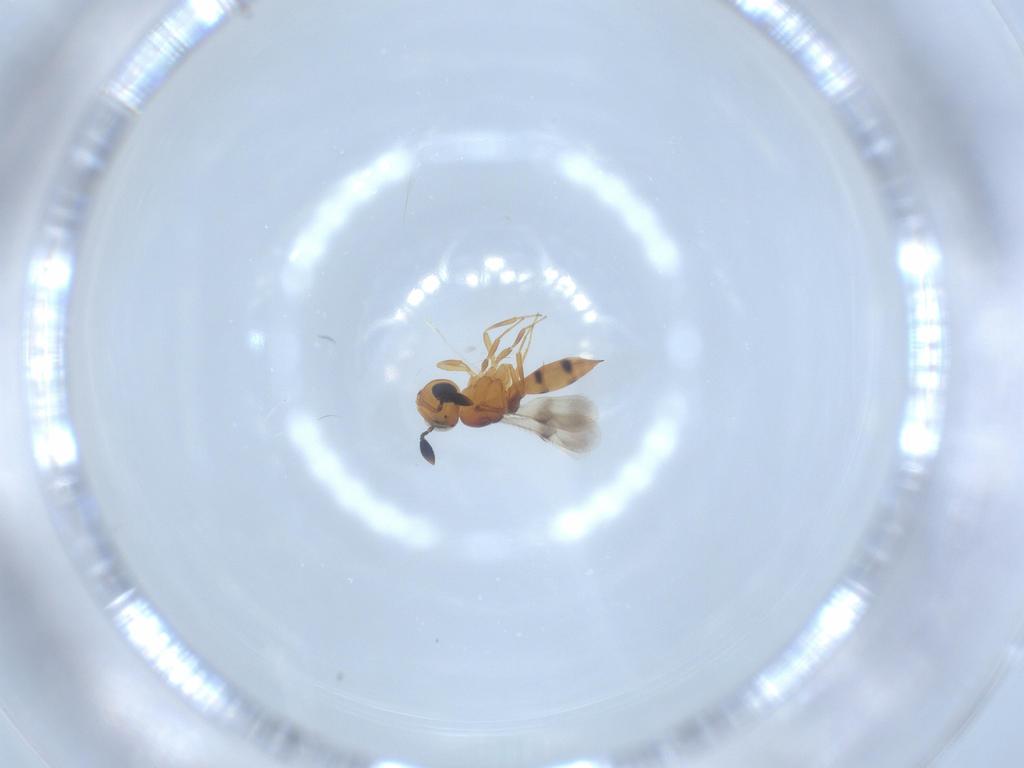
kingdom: Animalia
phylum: Arthropoda
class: Insecta
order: Hymenoptera
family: Scelionidae
